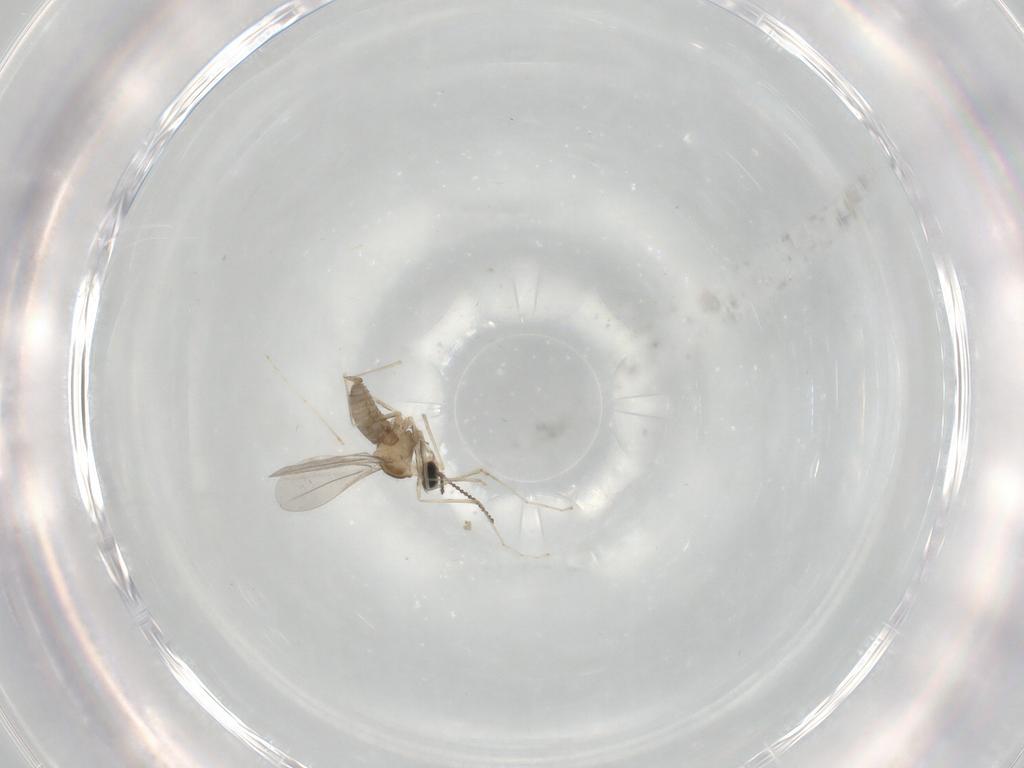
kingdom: Animalia
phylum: Arthropoda
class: Insecta
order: Diptera
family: Cecidomyiidae
